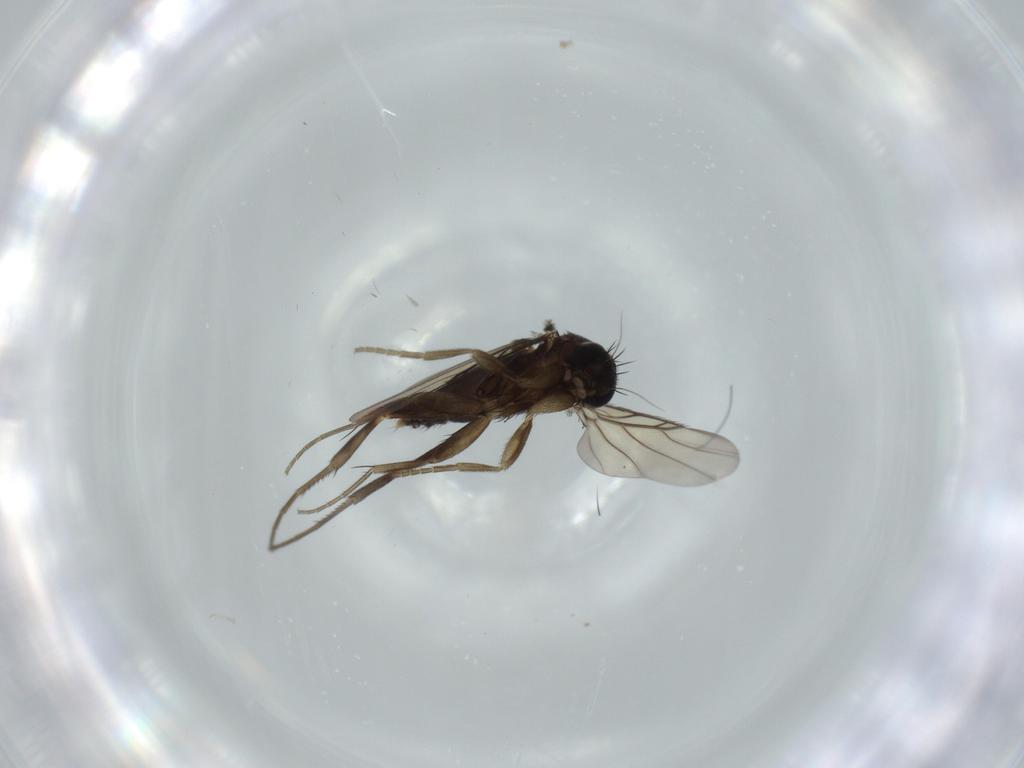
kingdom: Animalia
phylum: Arthropoda
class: Insecta
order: Diptera
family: Phoridae
